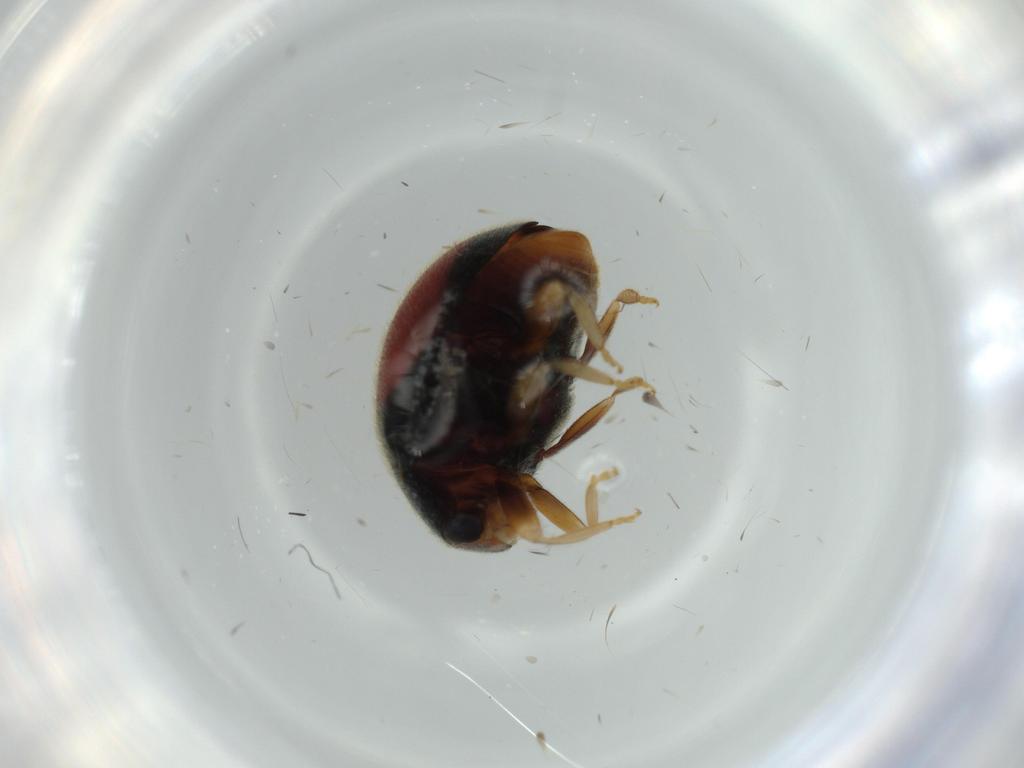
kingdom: Animalia
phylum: Arthropoda
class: Insecta
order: Coleoptera
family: Coccinellidae
